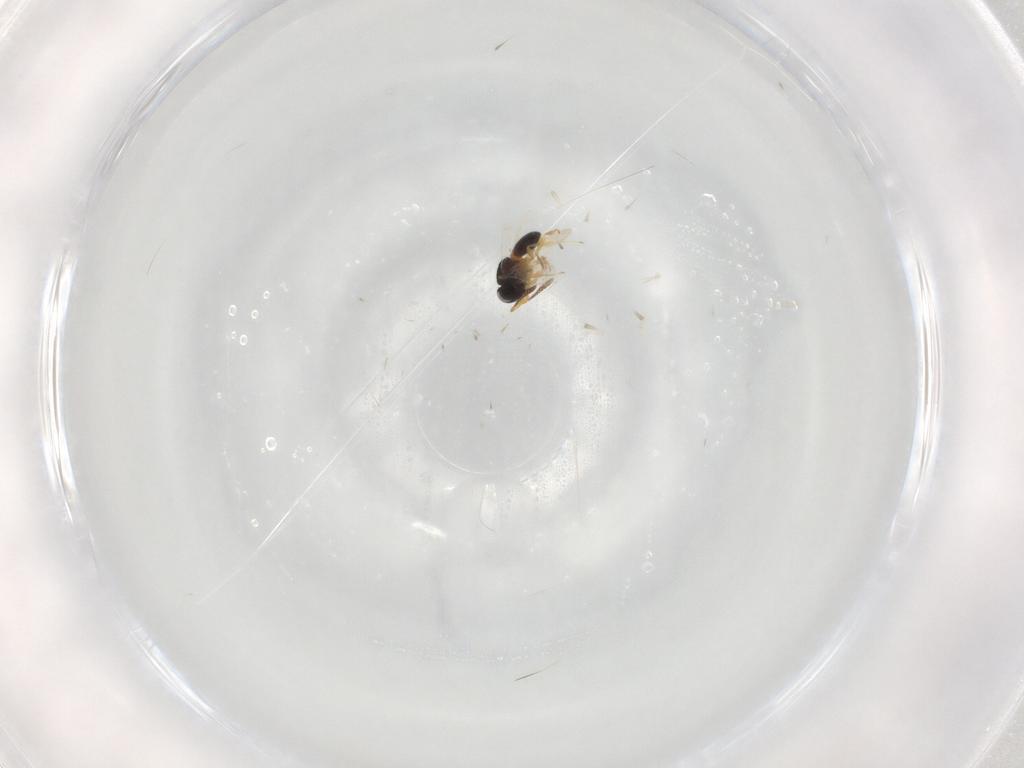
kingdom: Animalia
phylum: Arthropoda
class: Insecta
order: Hymenoptera
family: Scelionidae
